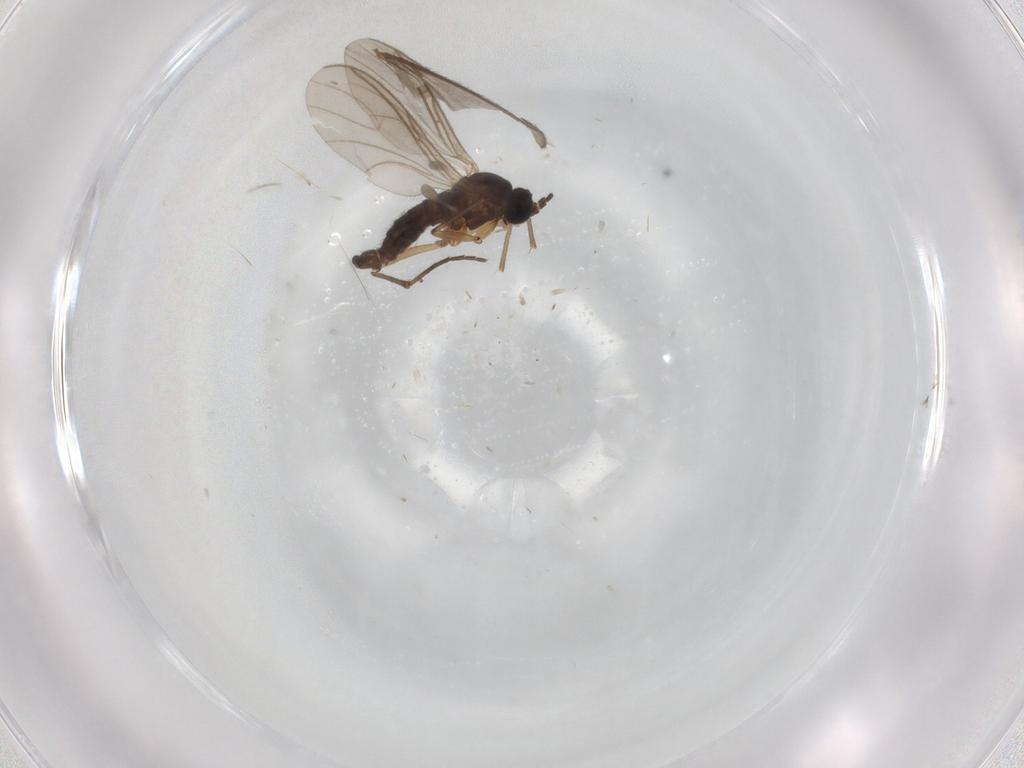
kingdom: Animalia
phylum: Arthropoda
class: Insecta
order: Diptera
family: Sciaridae
